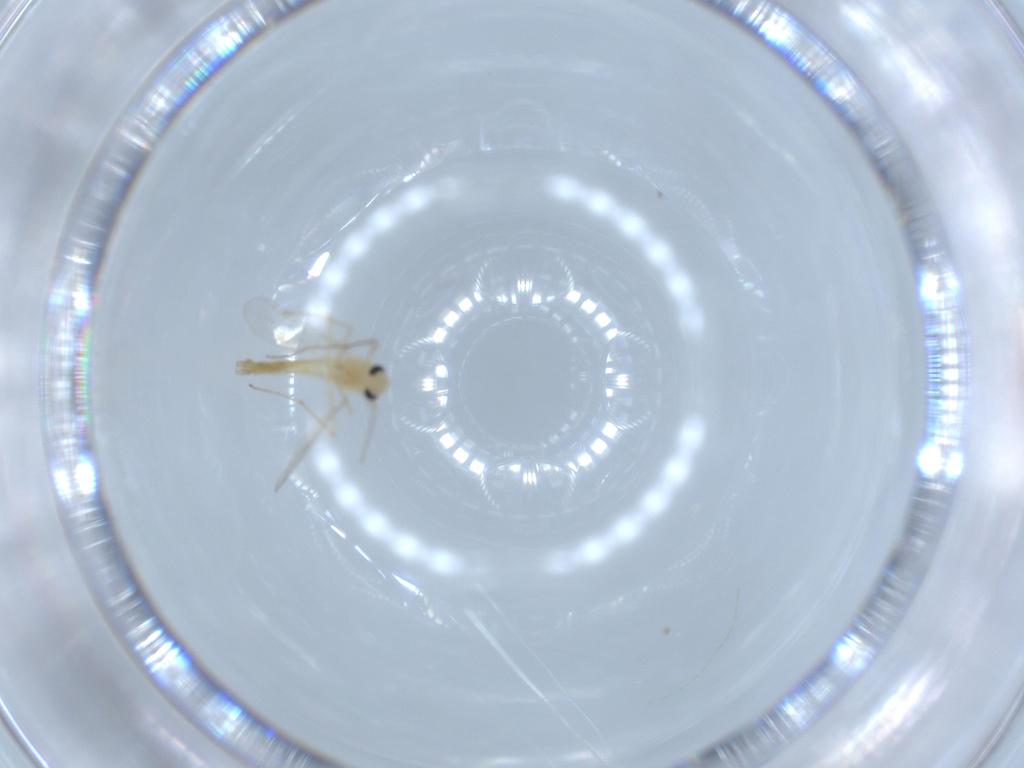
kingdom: Animalia
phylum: Arthropoda
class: Insecta
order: Diptera
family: Chironomidae
